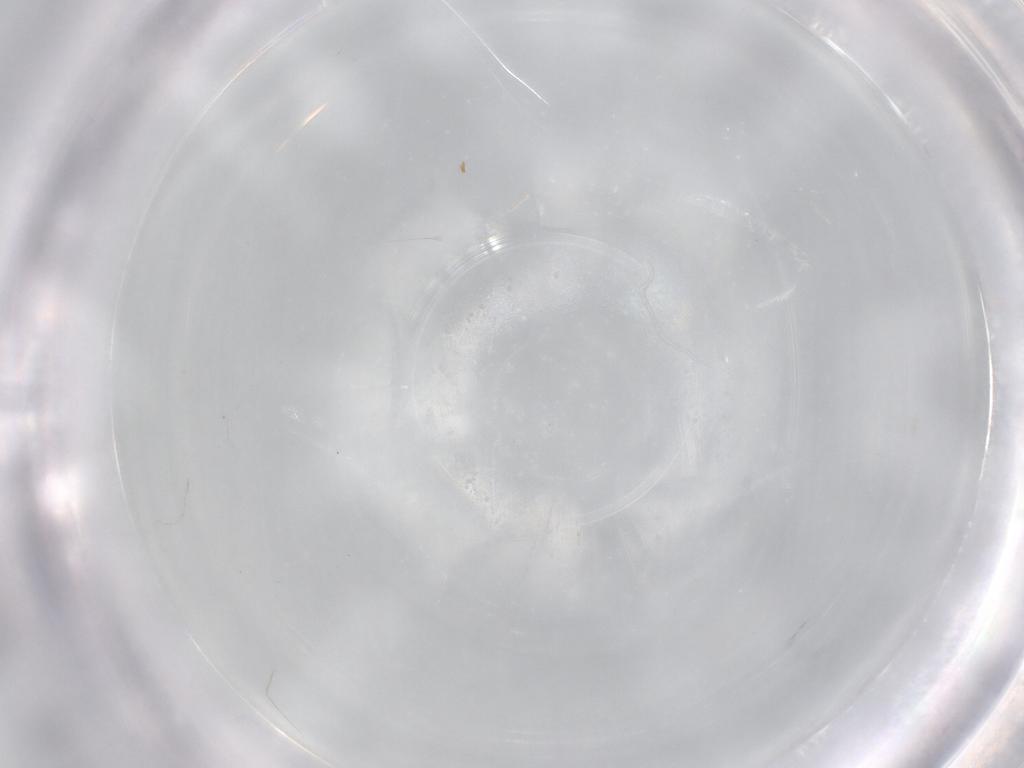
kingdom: Animalia
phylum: Arthropoda
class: Insecta
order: Diptera
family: Chironomidae
